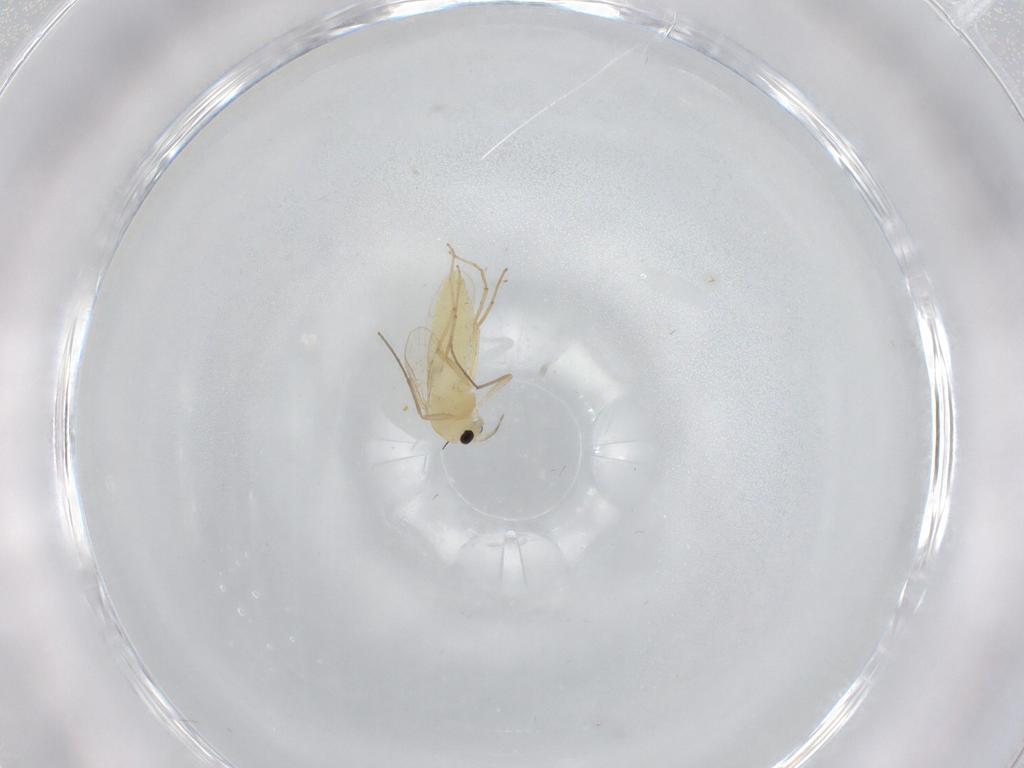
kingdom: Animalia
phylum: Arthropoda
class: Insecta
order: Diptera
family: Chironomidae
